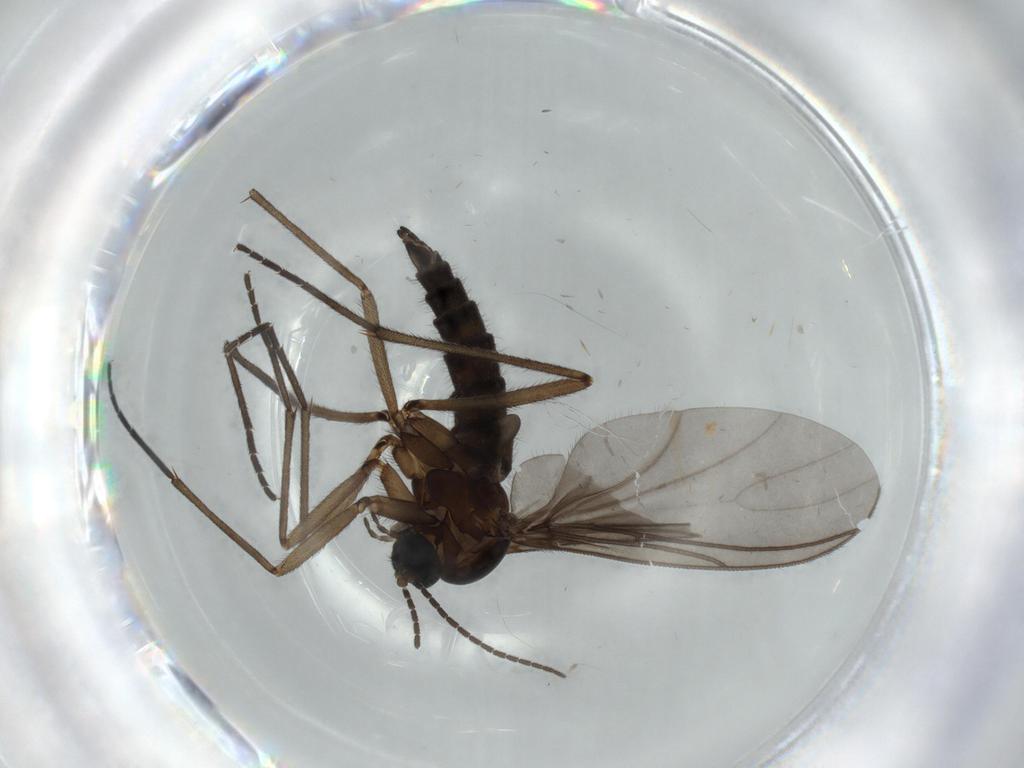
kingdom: Animalia
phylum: Arthropoda
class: Insecta
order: Diptera
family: Sciaridae
